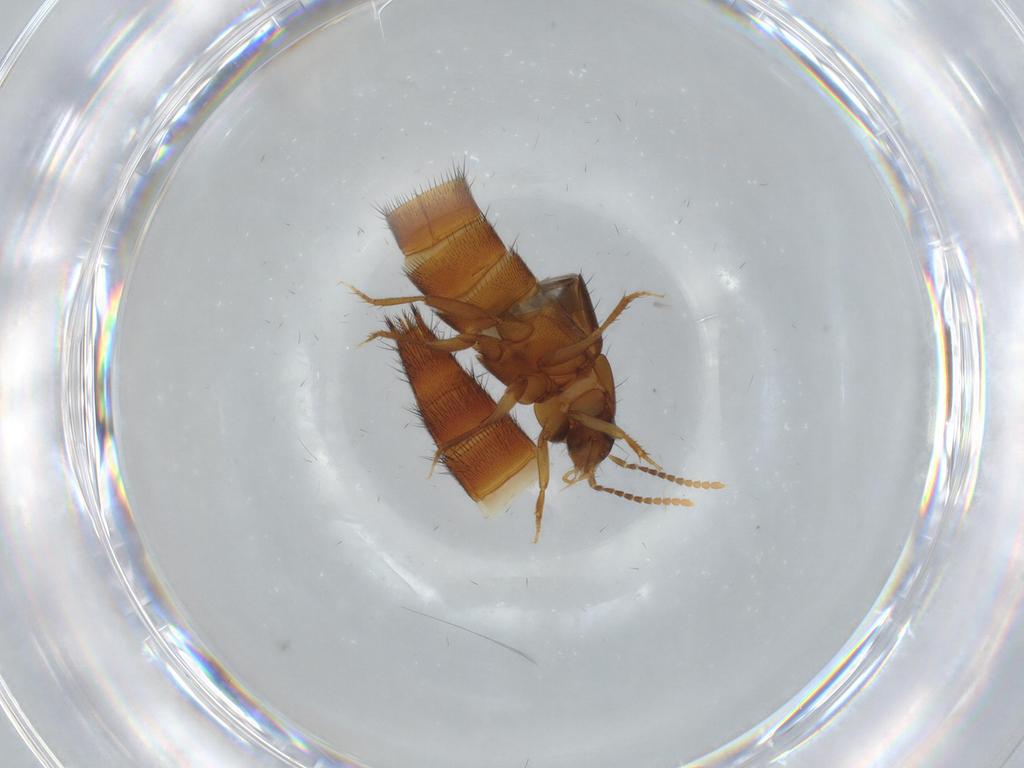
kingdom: Animalia
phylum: Arthropoda
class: Insecta
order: Coleoptera
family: Staphylinidae
